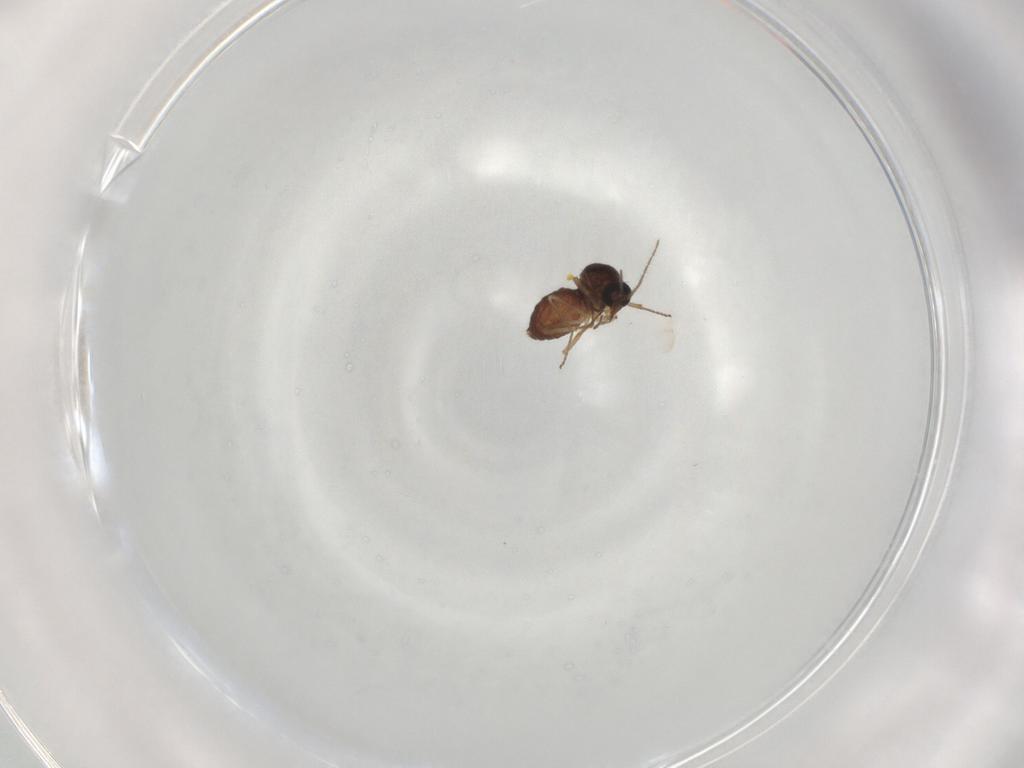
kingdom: Animalia
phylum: Arthropoda
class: Insecta
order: Diptera
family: Ceratopogonidae
